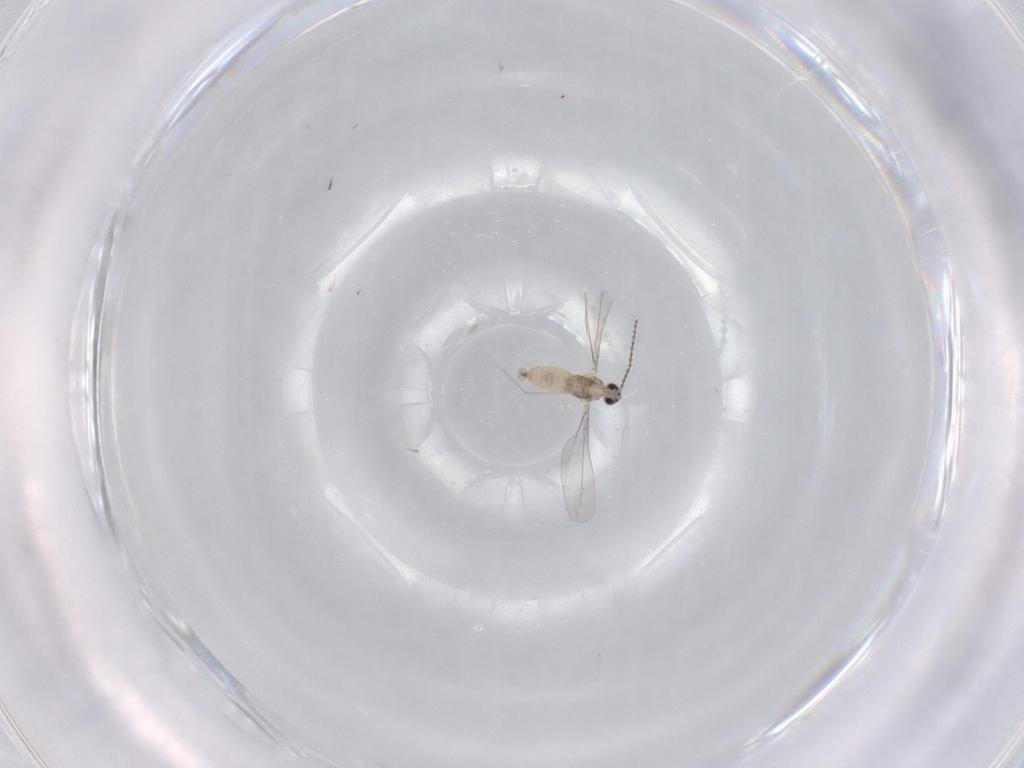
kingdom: Animalia
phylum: Arthropoda
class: Insecta
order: Diptera
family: Cecidomyiidae
